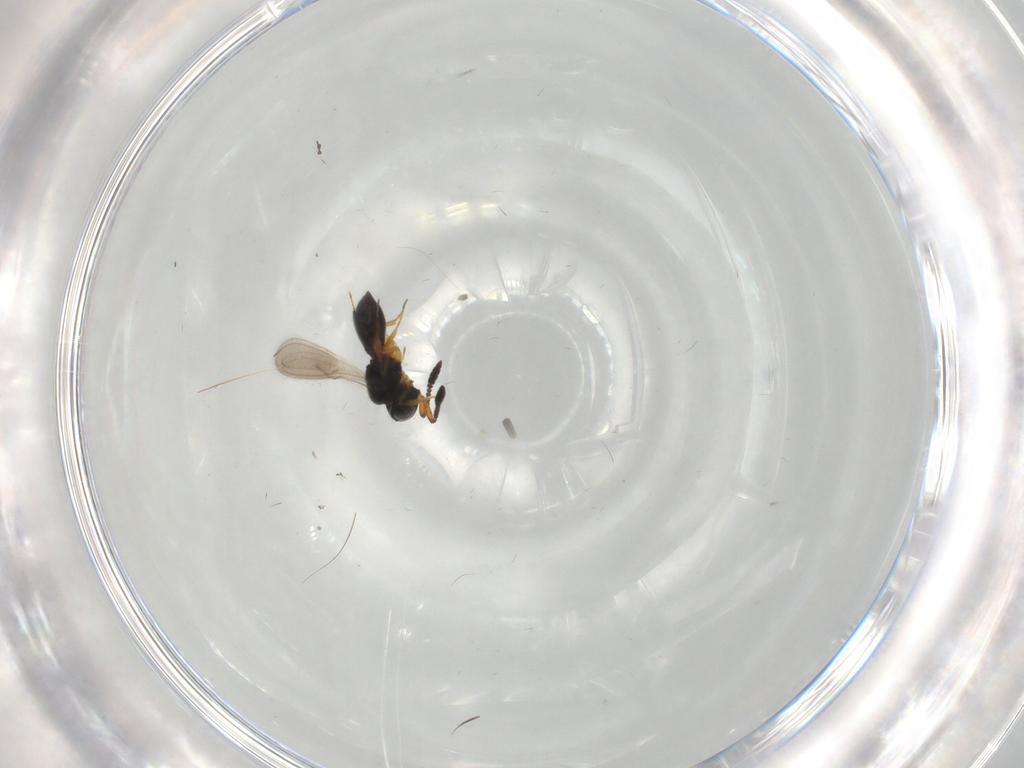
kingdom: Animalia
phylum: Arthropoda
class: Insecta
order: Hymenoptera
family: Scelionidae
